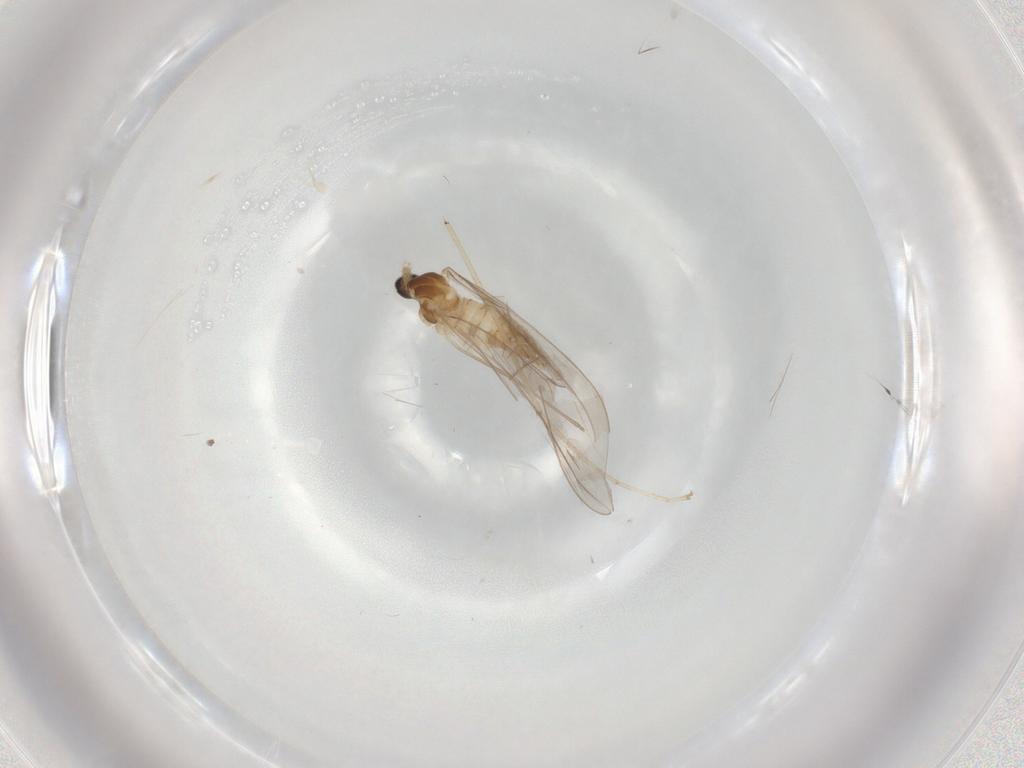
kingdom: Animalia
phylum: Arthropoda
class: Insecta
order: Diptera
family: Cecidomyiidae
